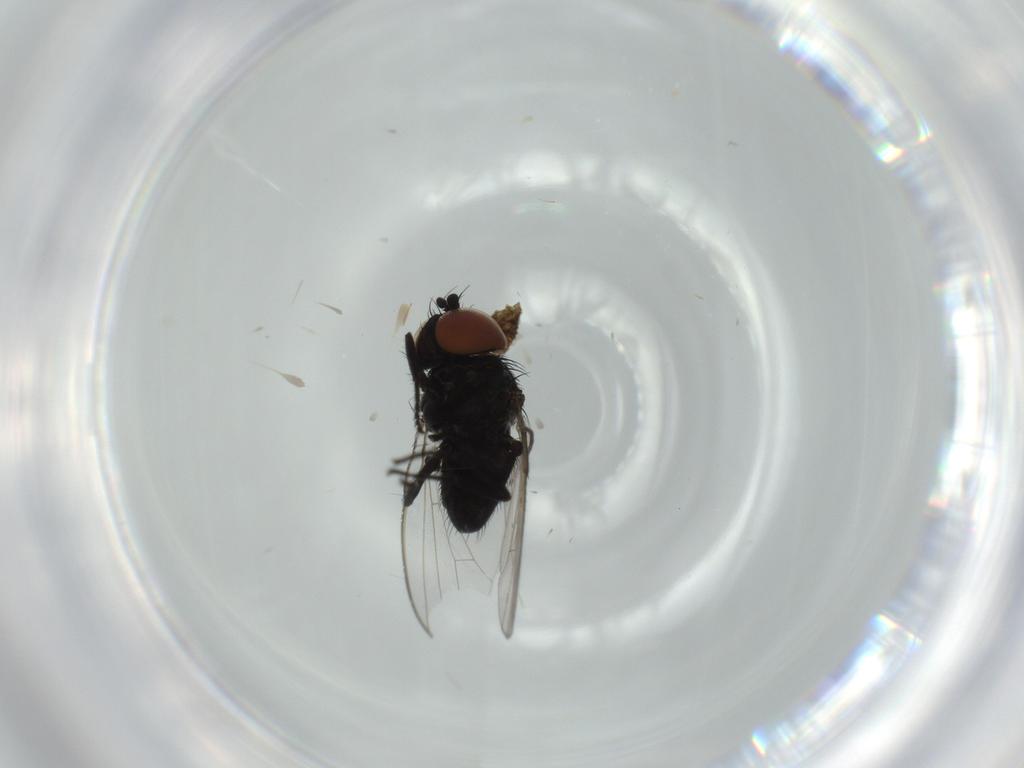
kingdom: Animalia
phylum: Arthropoda
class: Insecta
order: Diptera
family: Milichiidae
